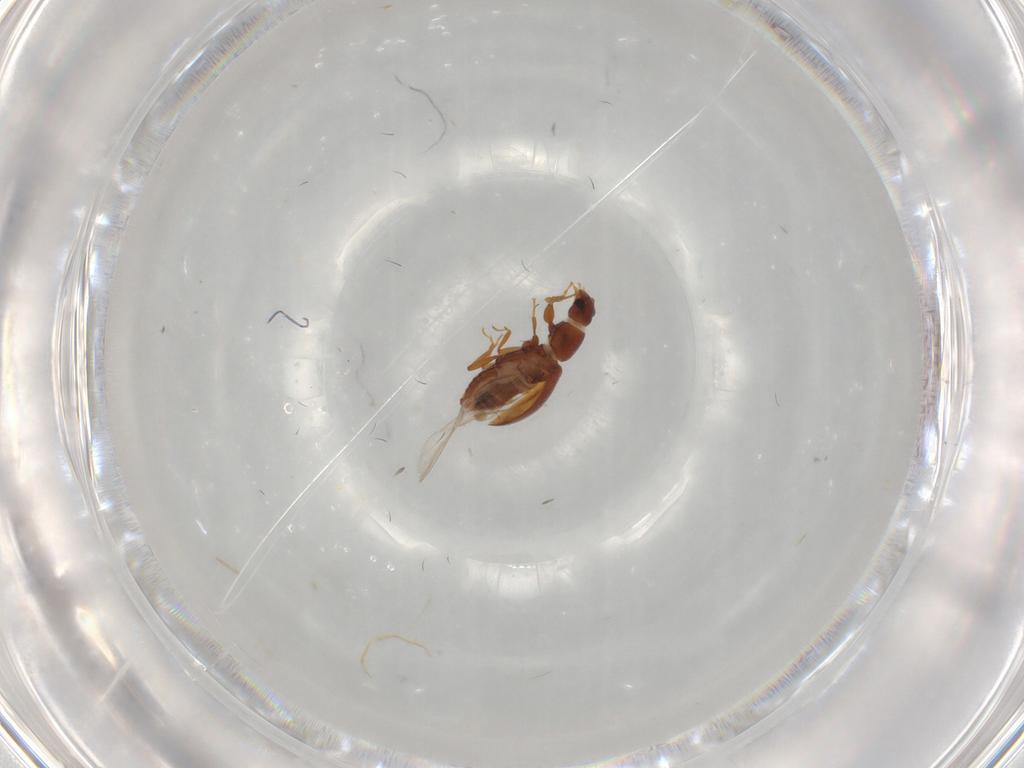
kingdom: Animalia
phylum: Arthropoda
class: Insecta
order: Coleoptera
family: Latridiidae
